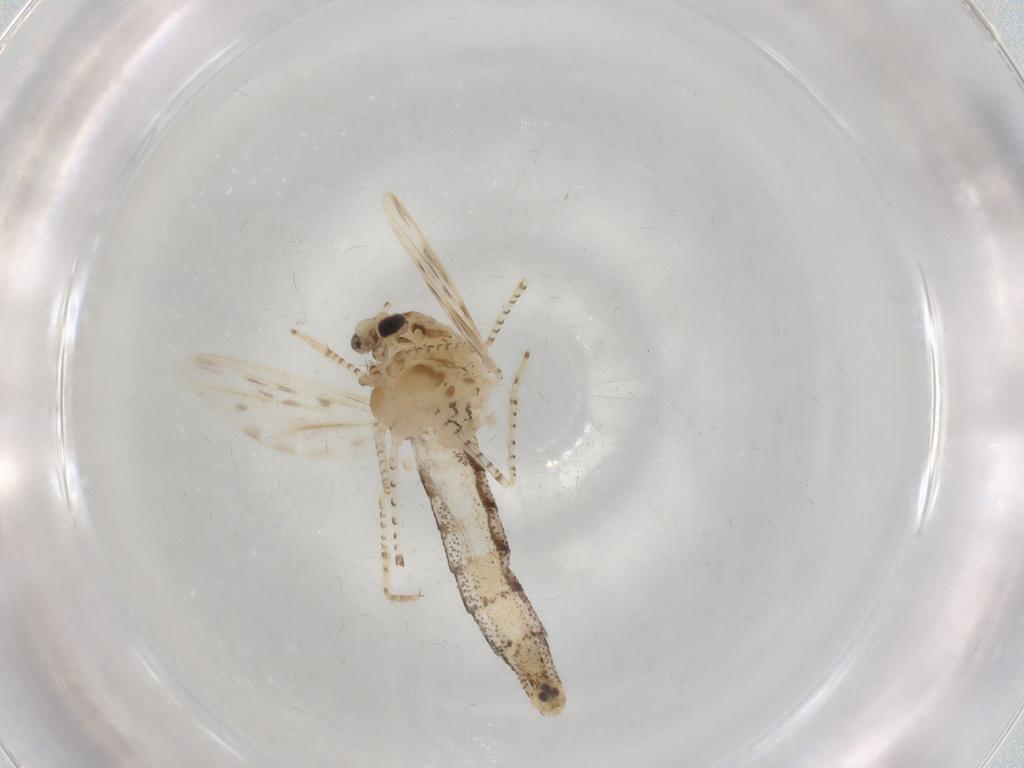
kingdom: Animalia
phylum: Arthropoda
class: Insecta
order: Diptera
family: Chaoboridae
